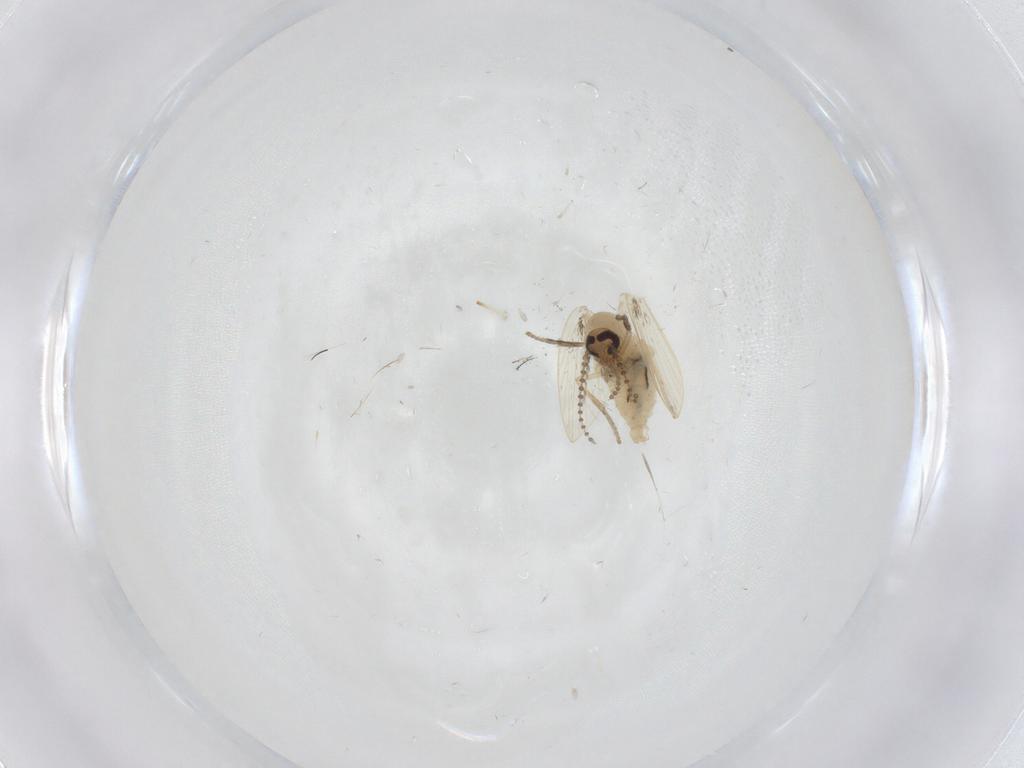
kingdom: Animalia
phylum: Arthropoda
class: Insecta
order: Diptera
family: Psychodidae
